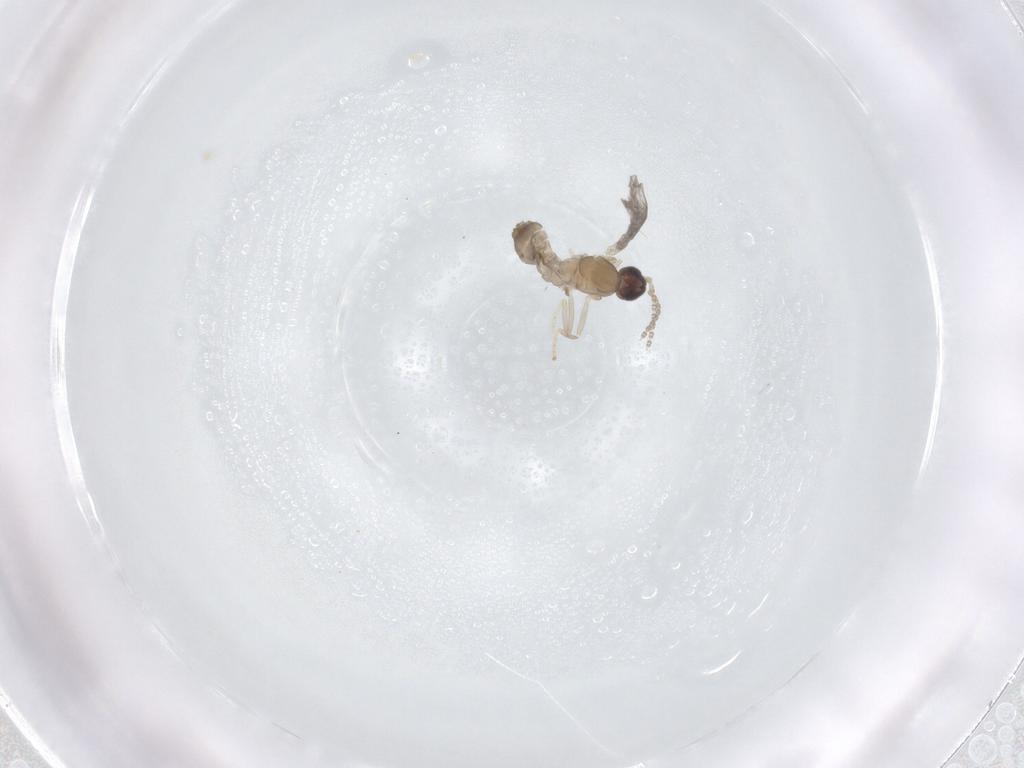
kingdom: Animalia
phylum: Arthropoda
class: Insecta
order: Diptera
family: Cecidomyiidae
